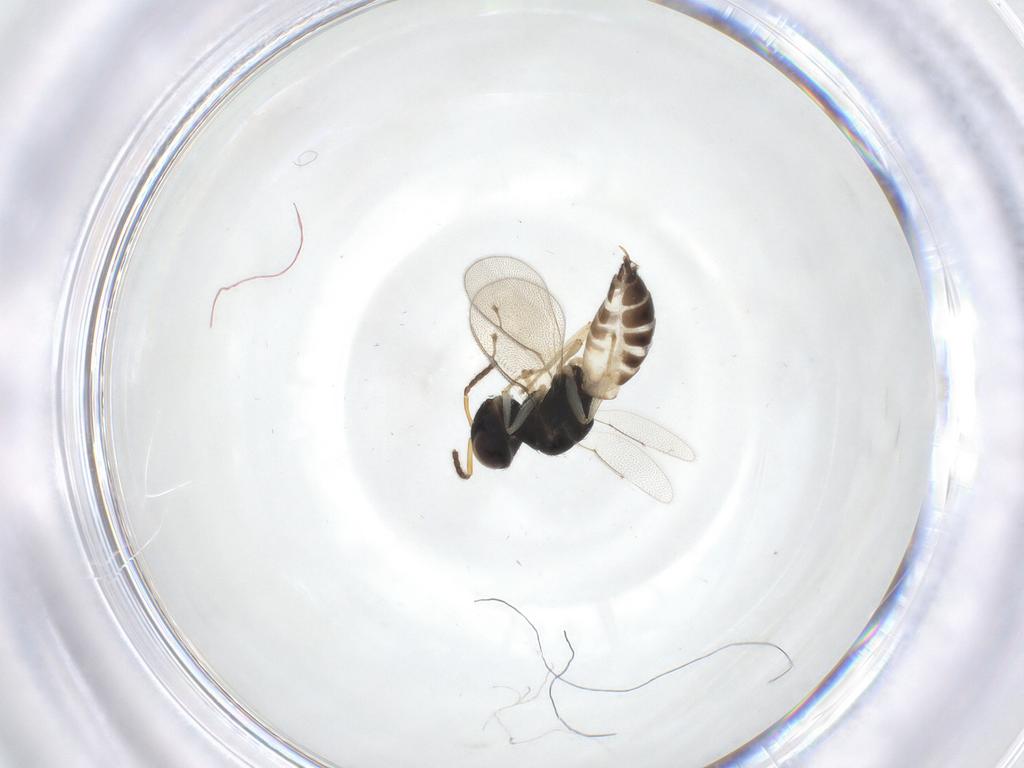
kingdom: Animalia
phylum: Arthropoda
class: Insecta
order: Hymenoptera
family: Pteromalidae
